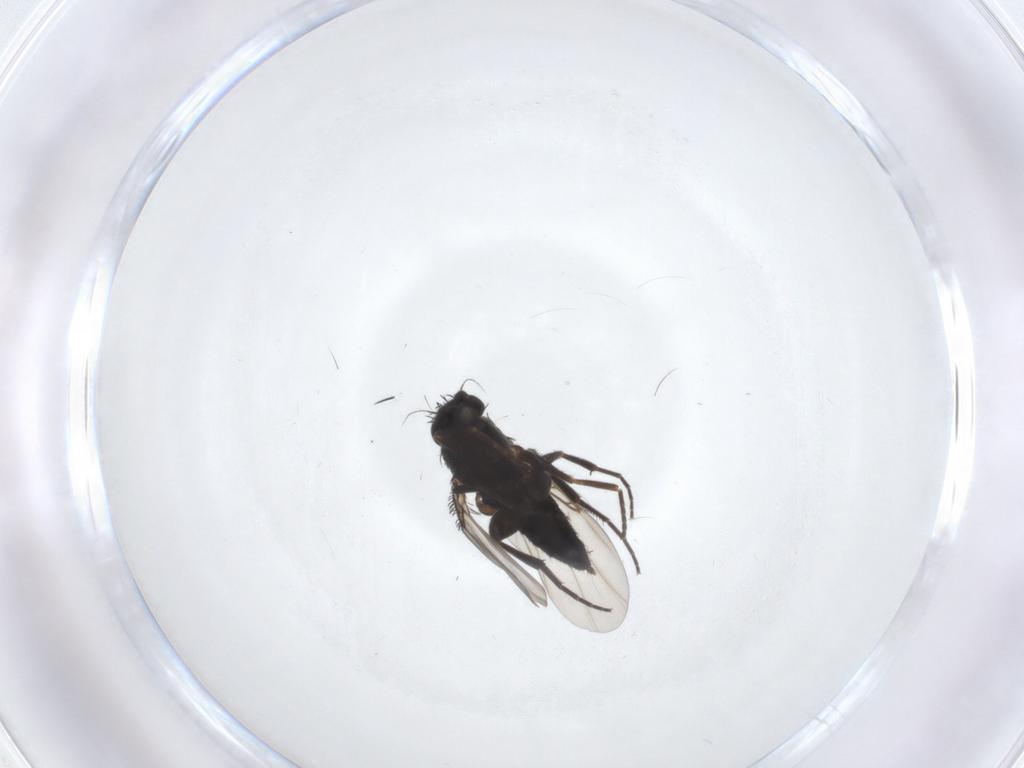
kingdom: Animalia
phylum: Arthropoda
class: Insecta
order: Diptera
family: Phoridae
